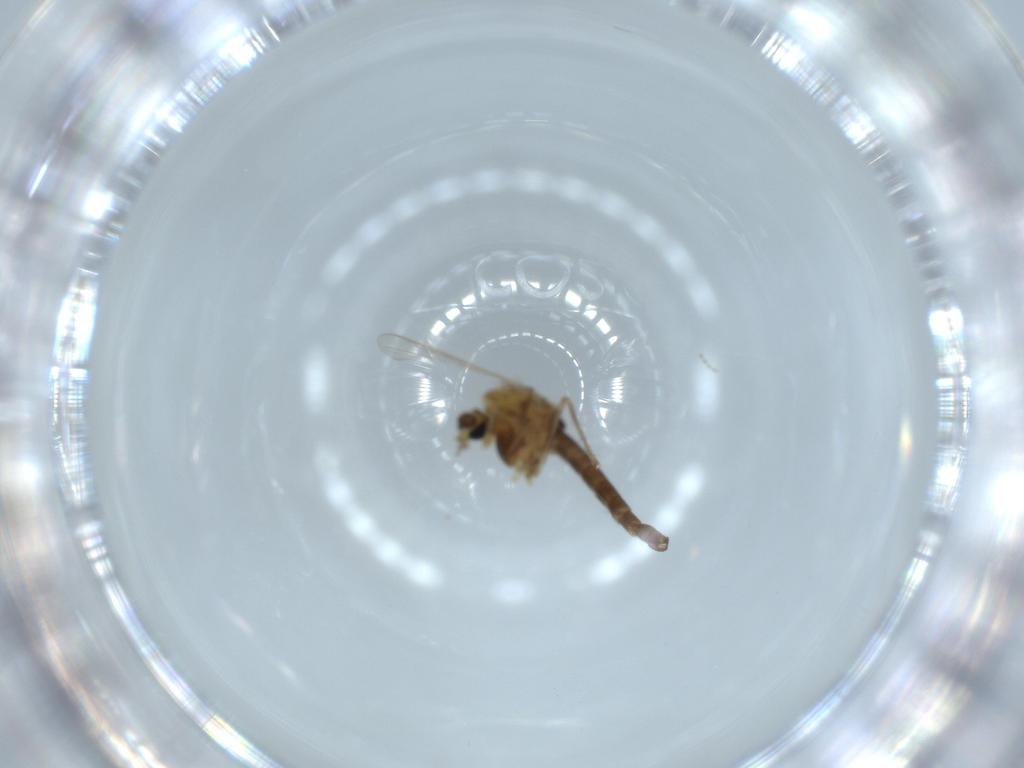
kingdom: Animalia
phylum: Arthropoda
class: Insecta
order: Diptera
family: Chironomidae
